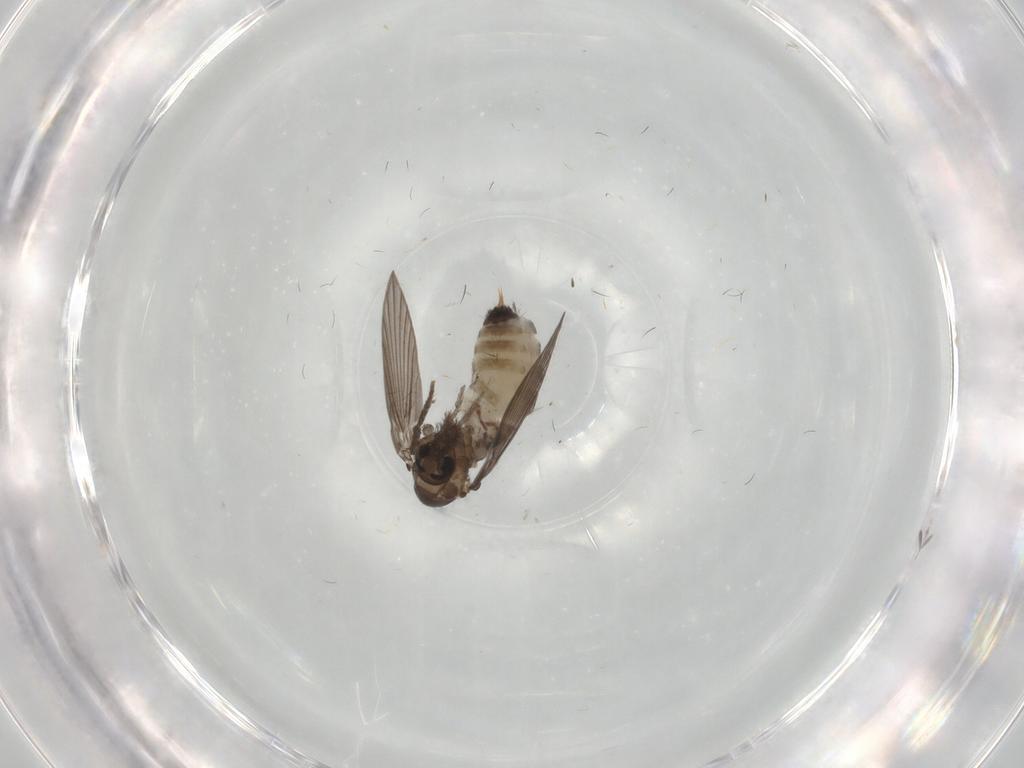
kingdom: Animalia
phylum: Arthropoda
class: Insecta
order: Diptera
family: Psychodidae
